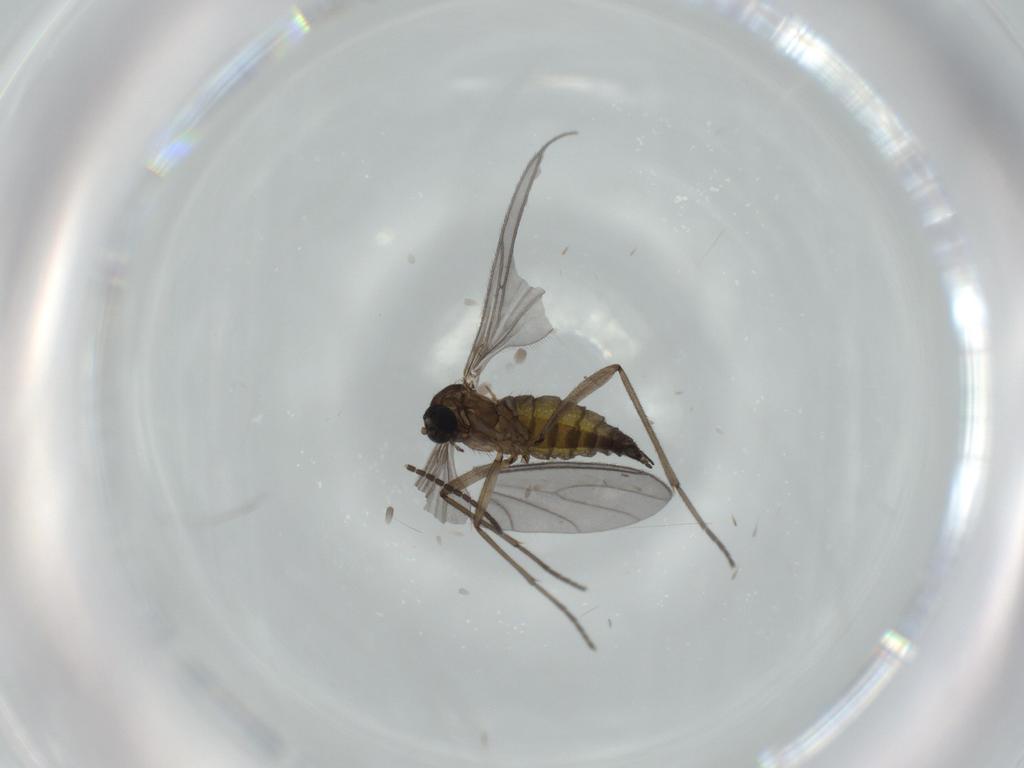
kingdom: Animalia
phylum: Arthropoda
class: Insecta
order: Diptera
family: Sciaridae
